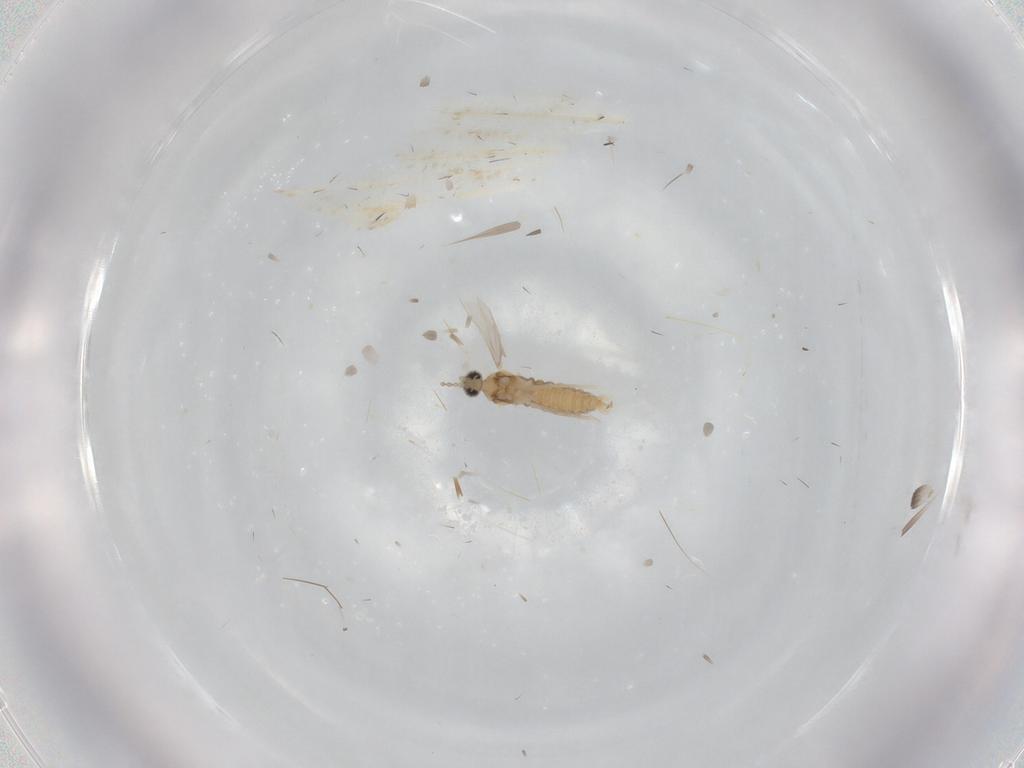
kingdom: Animalia
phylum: Arthropoda
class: Insecta
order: Diptera
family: Cecidomyiidae
